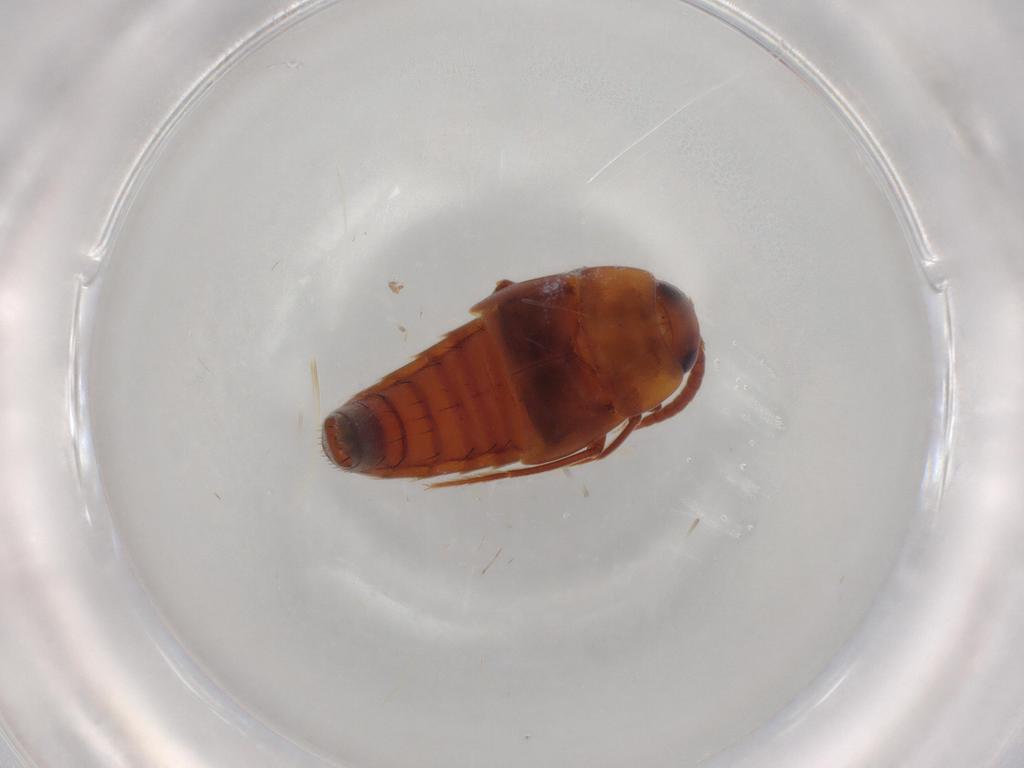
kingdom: Animalia
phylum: Arthropoda
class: Insecta
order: Coleoptera
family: Staphylinidae
